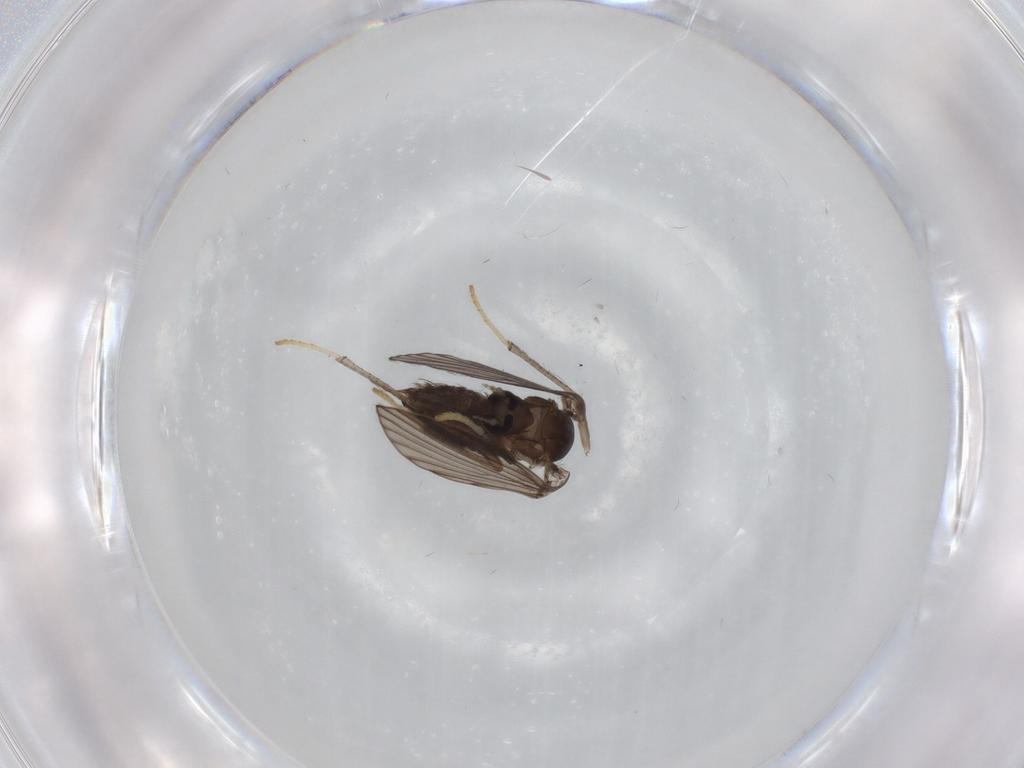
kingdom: Animalia
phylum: Arthropoda
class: Insecta
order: Diptera
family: Psychodidae
